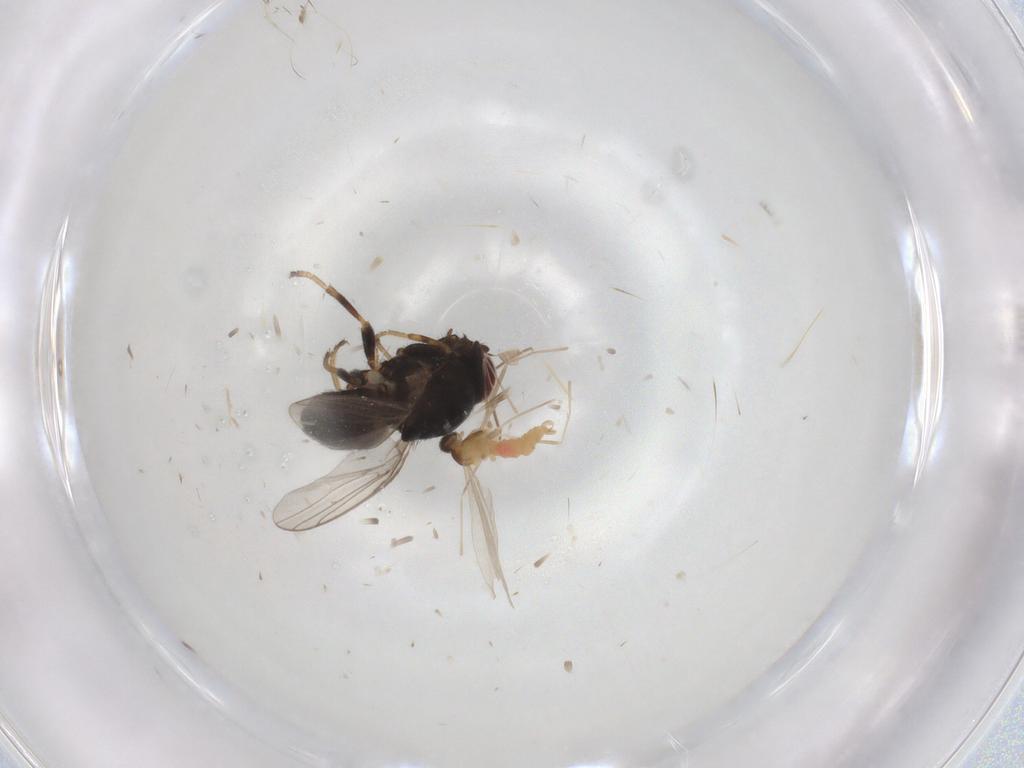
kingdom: Animalia
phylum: Arthropoda
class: Insecta
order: Diptera
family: Chloropidae
